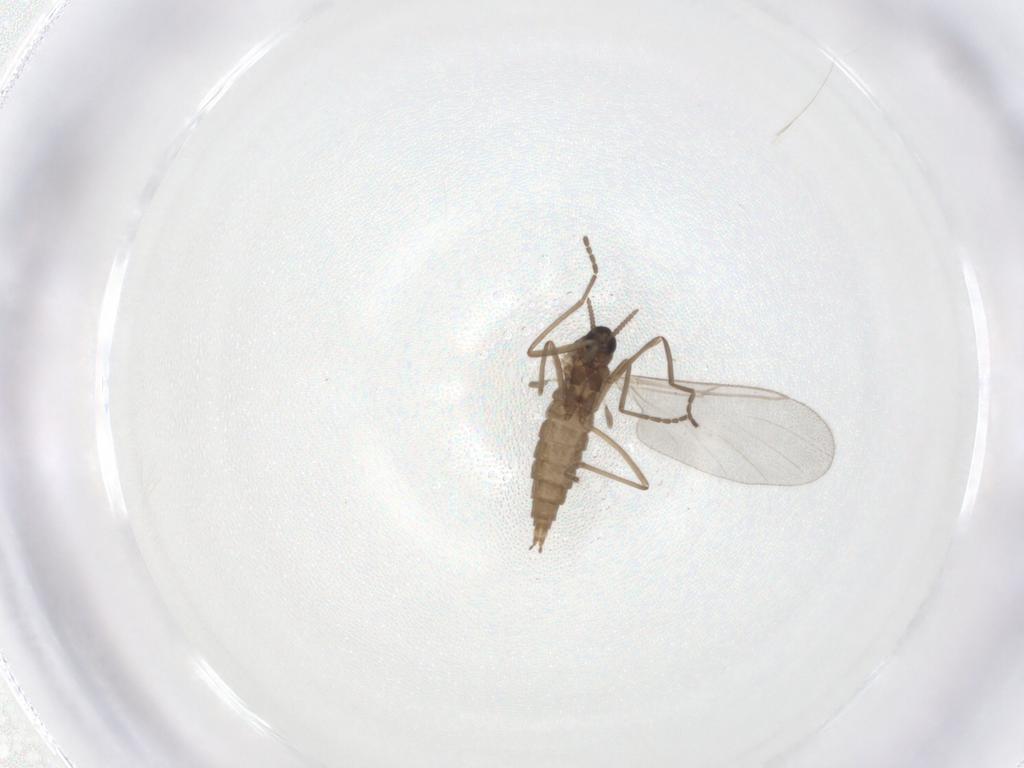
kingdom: Animalia
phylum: Arthropoda
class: Insecta
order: Diptera
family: Cecidomyiidae
